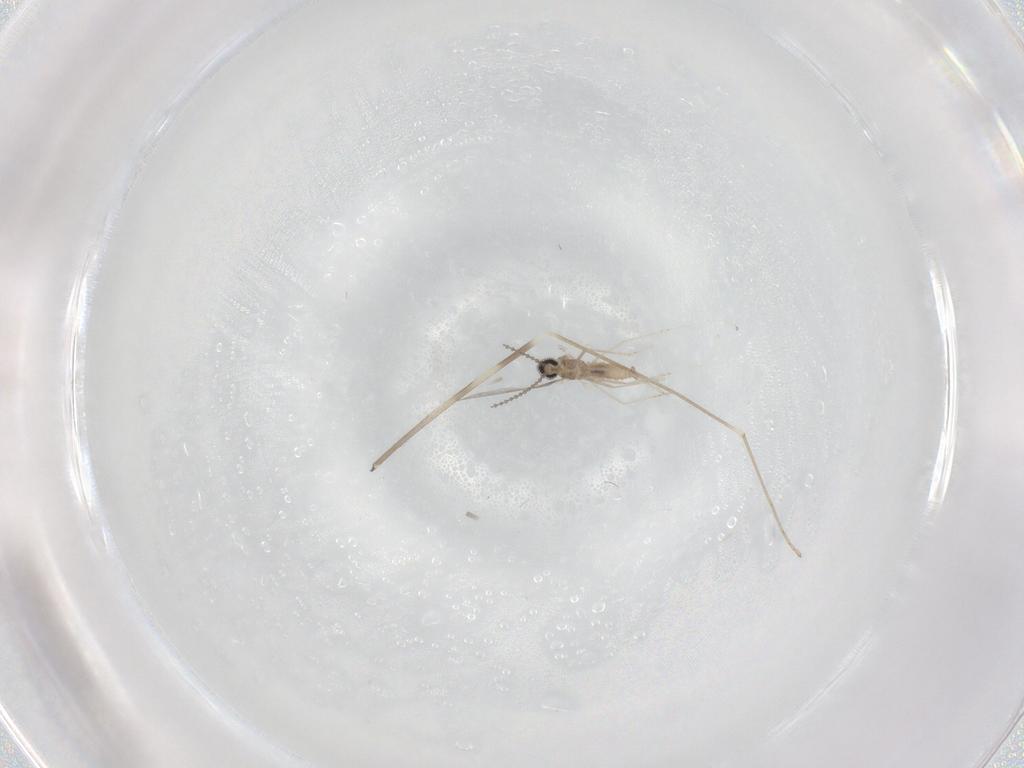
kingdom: Animalia
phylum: Arthropoda
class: Insecta
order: Diptera
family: Limoniidae
